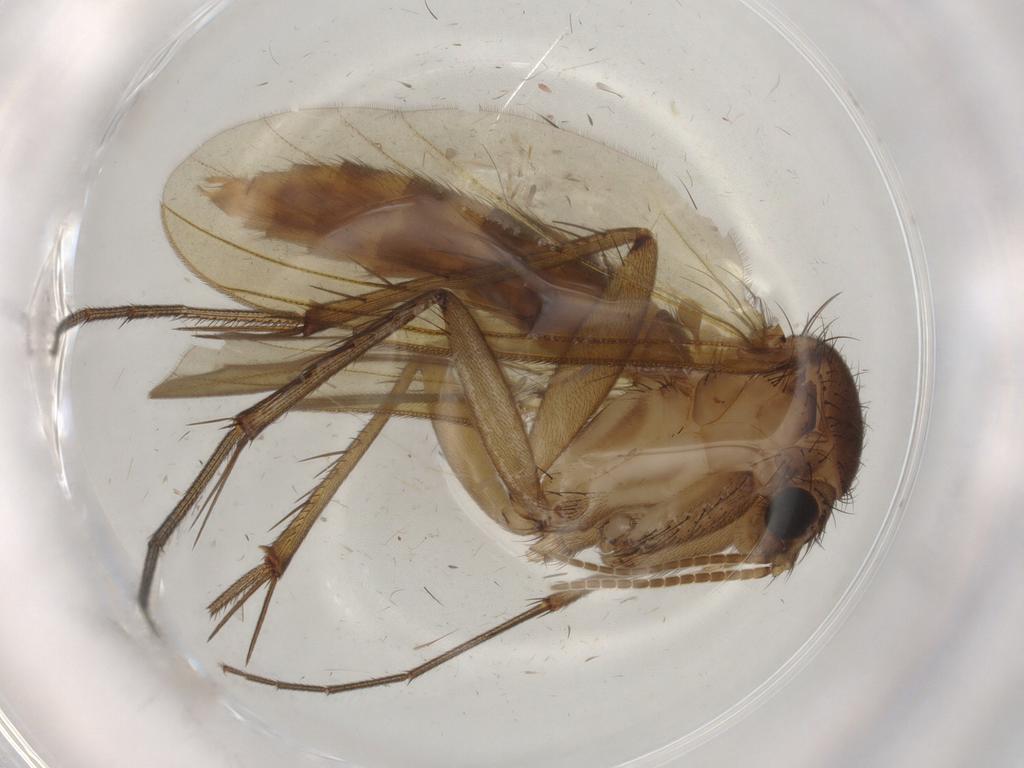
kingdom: Animalia
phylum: Arthropoda
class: Insecta
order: Diptera
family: Mycetophilidae
